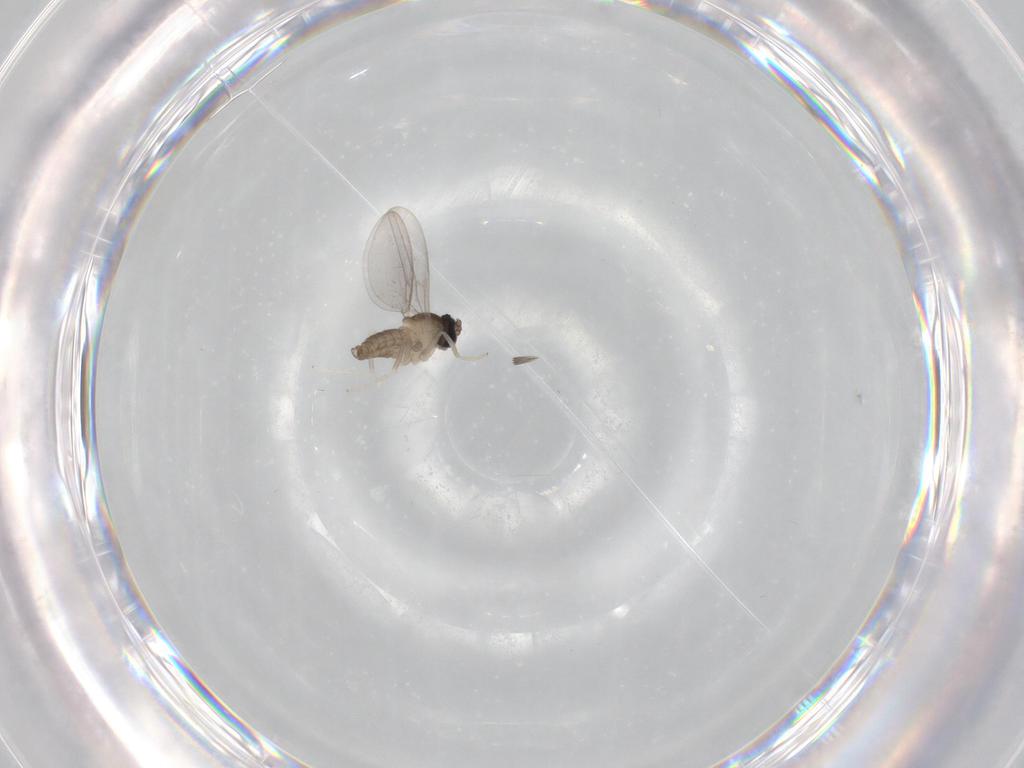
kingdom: Animalia
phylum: Arthropoda
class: Insecta
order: Diptera
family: Cecidomyiidae
